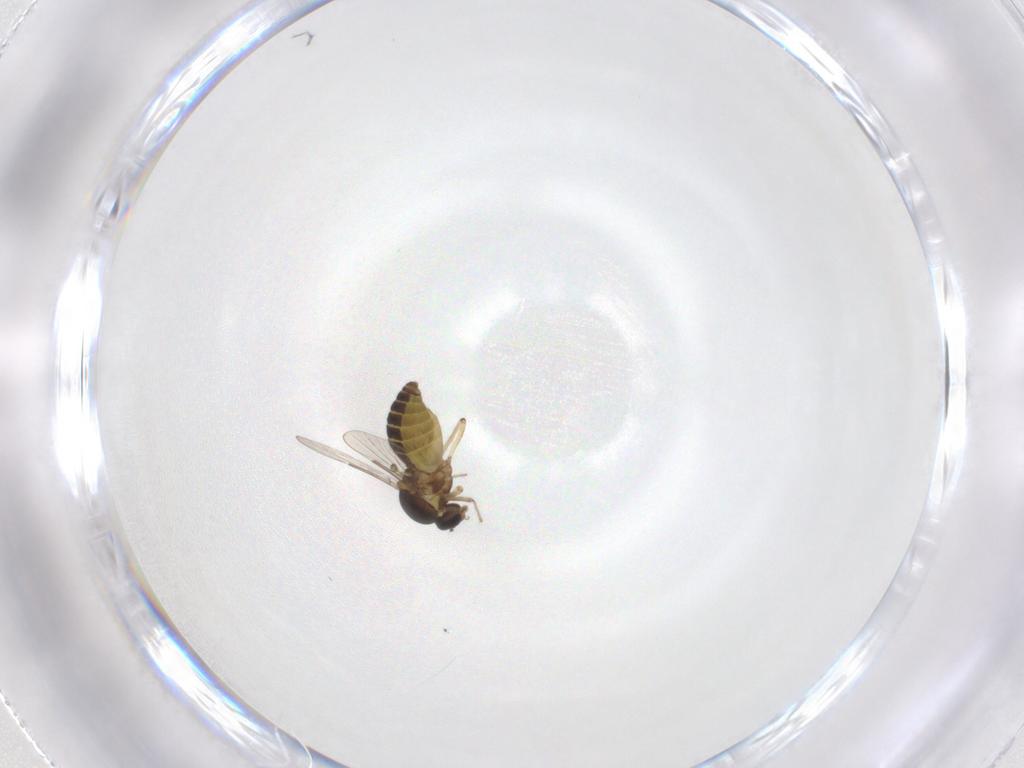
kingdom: Animalia
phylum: Arthropoda
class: Insecta
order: Diptera
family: Ceratopogonidae
